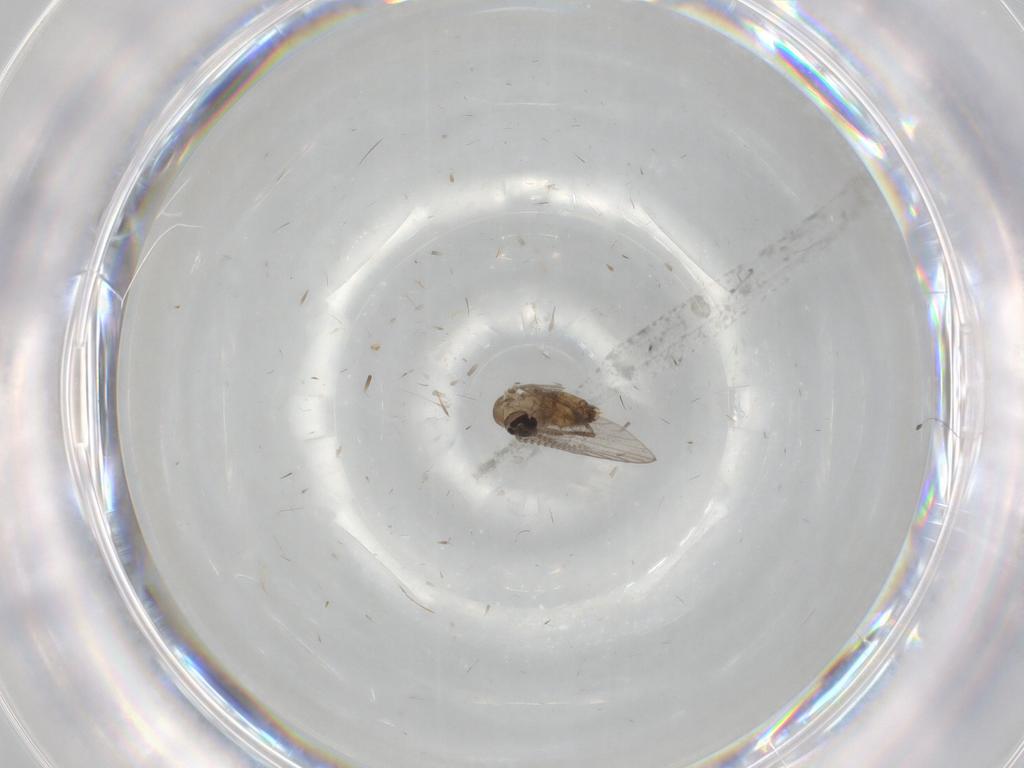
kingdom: Animalia
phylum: Arthropoda
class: Insecta
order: Diptera
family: Psychodidae
